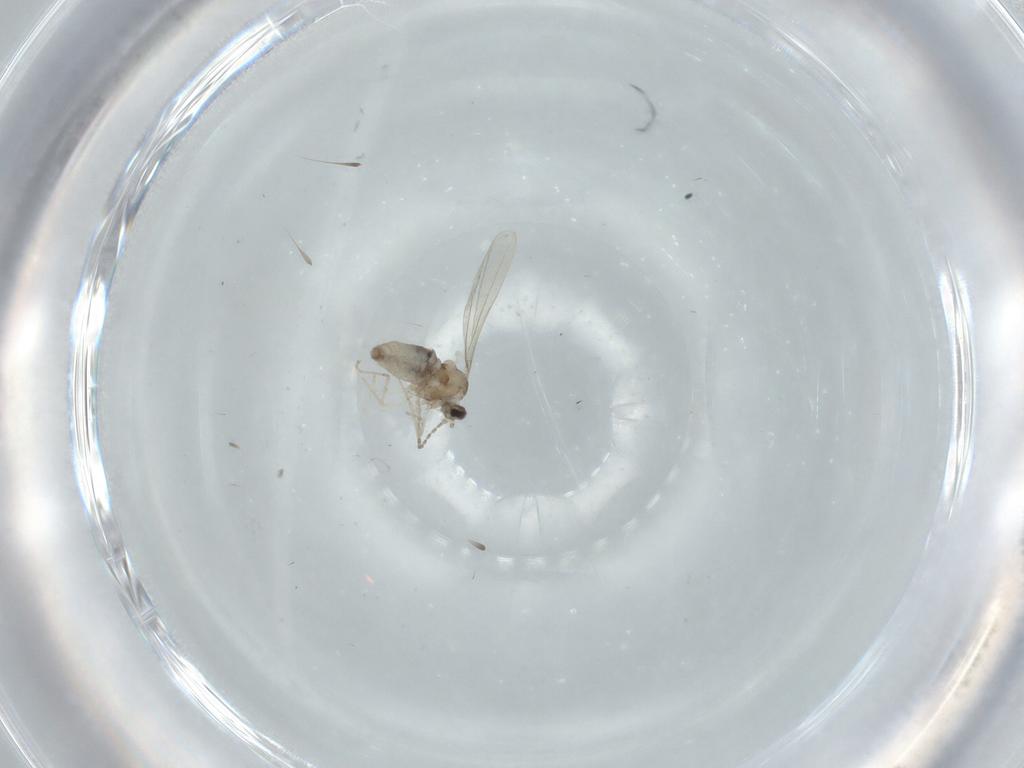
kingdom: Animalia
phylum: Arthropoda
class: Insecta
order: Diptera
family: Cecidomyiidae
